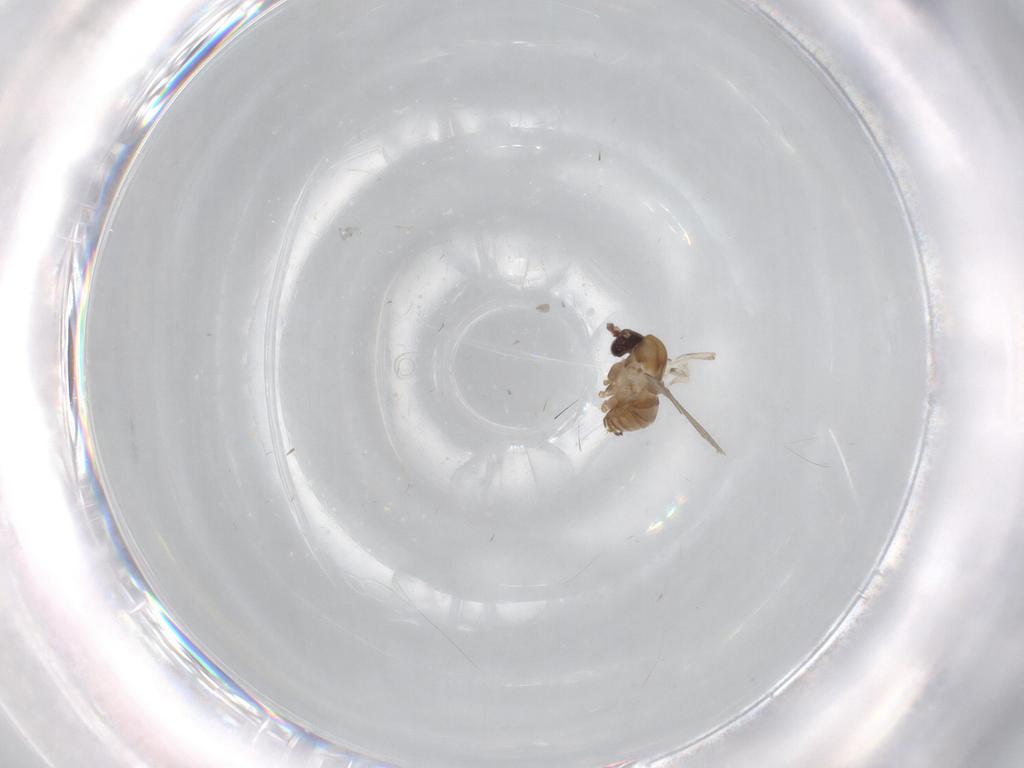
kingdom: Animalia
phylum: Arthropoda
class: Insecta
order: Diptera
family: Psychodidae
